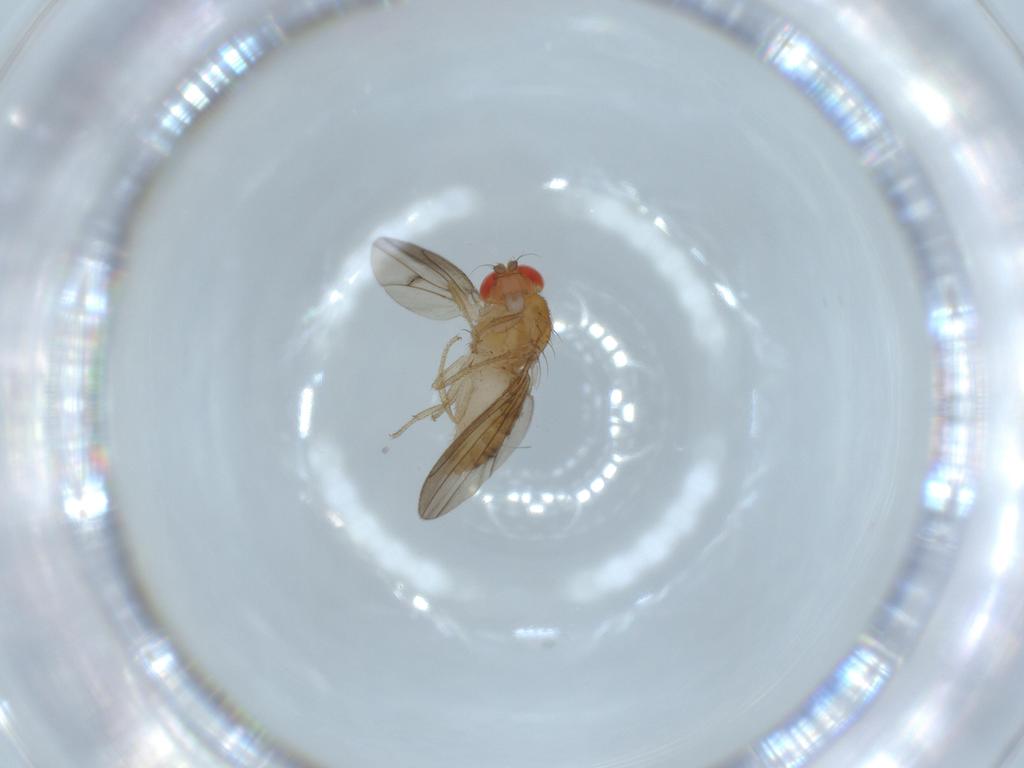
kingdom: Animalia
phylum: Arthropoda
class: Insecta
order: Diptera
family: Drosophilidae
